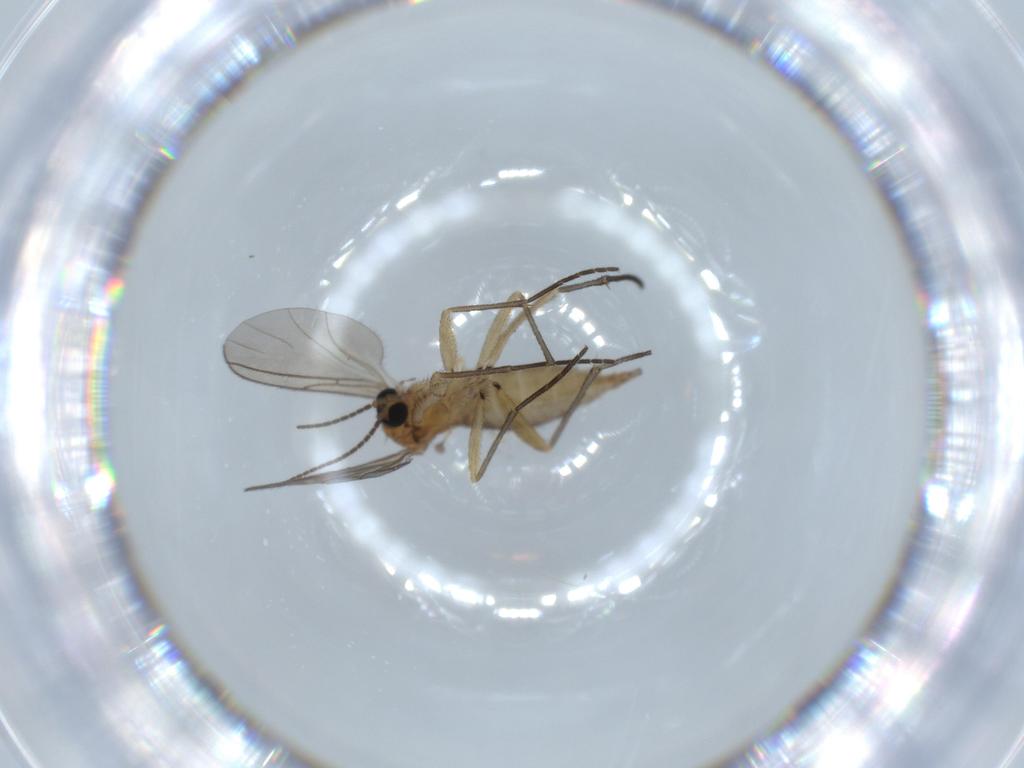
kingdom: Animalia
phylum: Arthropoda
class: Insecta
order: Diptera
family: Sciaridae
